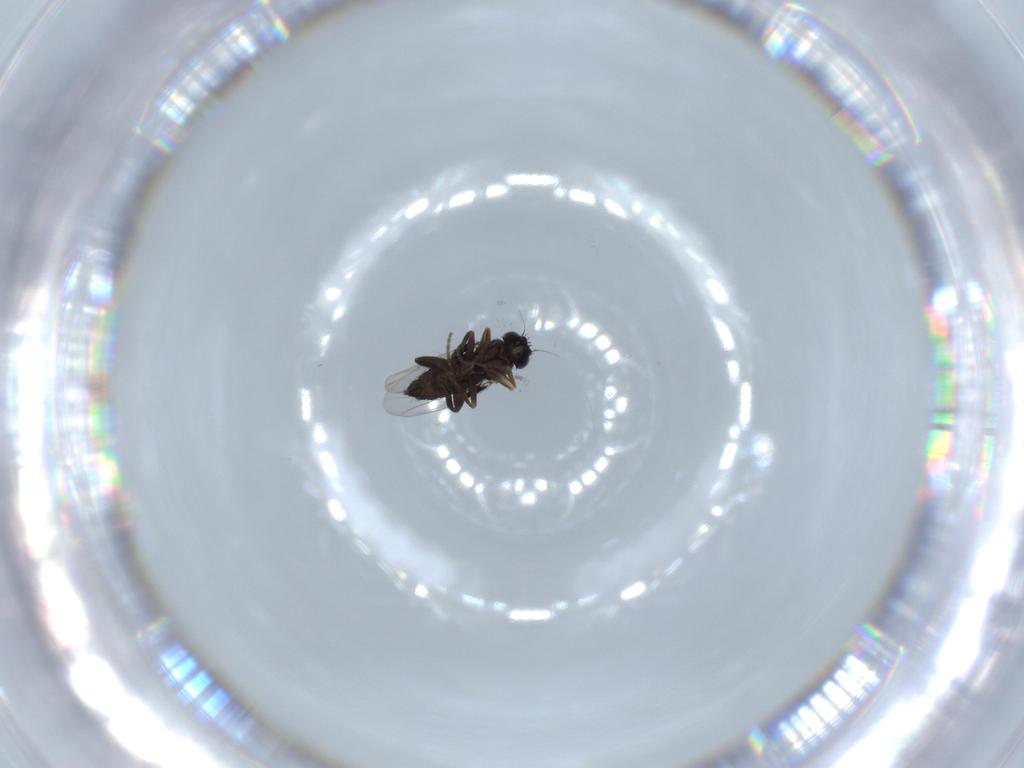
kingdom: Animalia
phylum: Arthropoda
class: Insecta
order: Diptera
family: Phoridae
